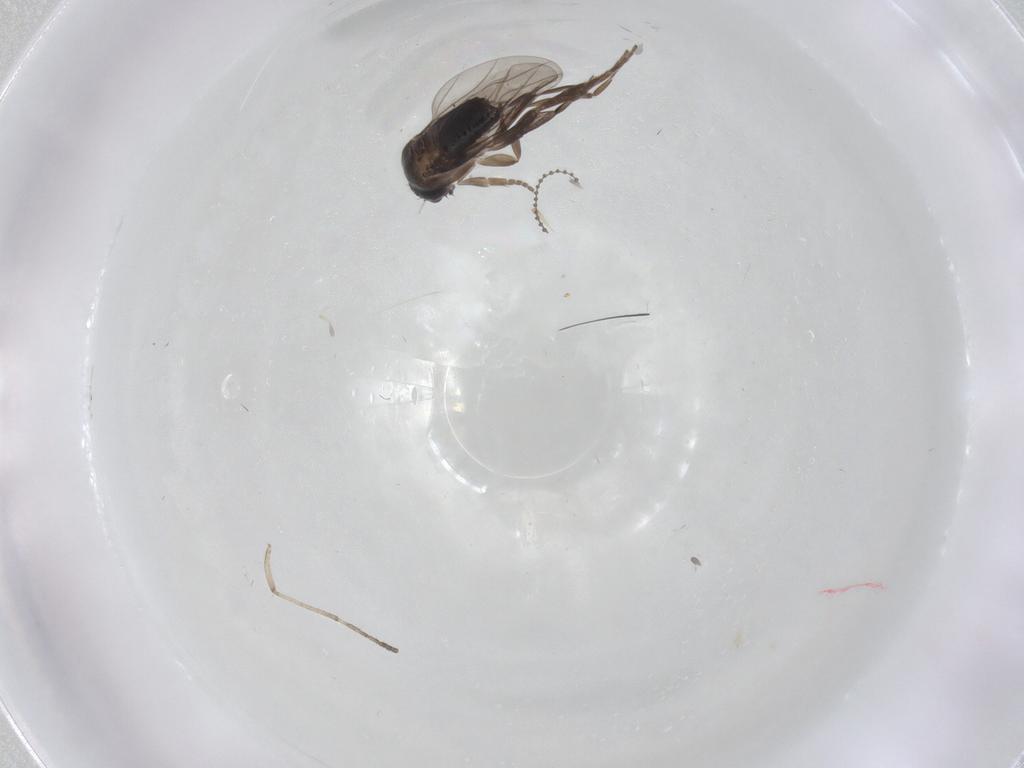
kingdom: Animalia
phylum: Arthropoda
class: Insecta
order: Diptera
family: Phoridae
